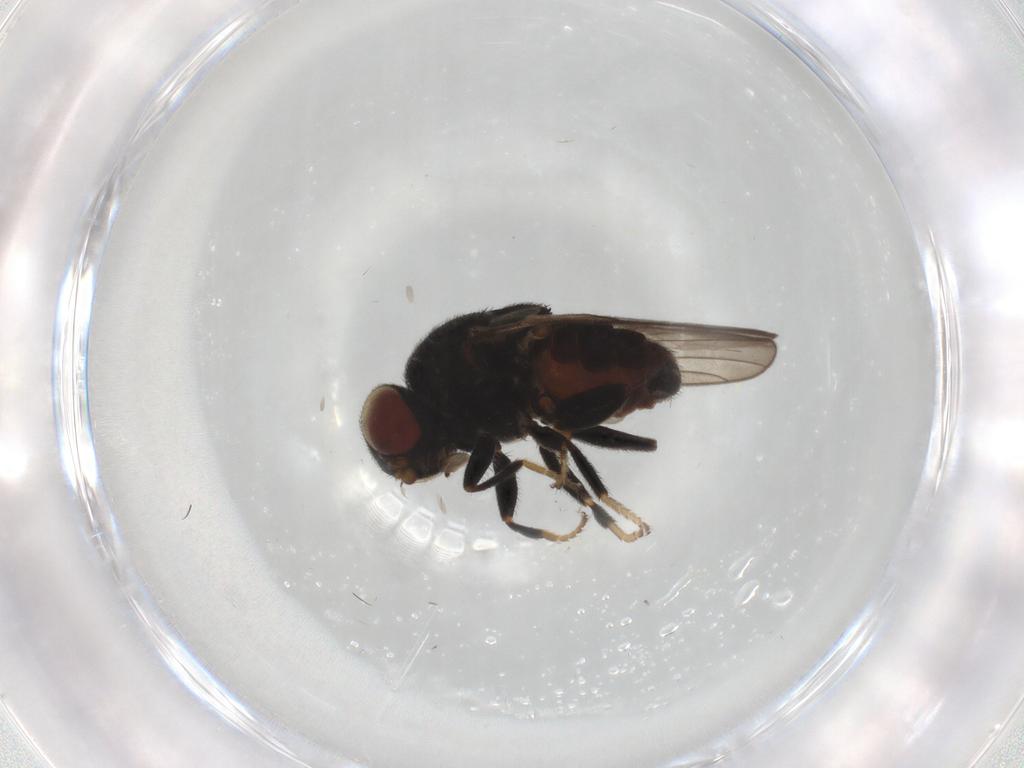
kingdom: Animalia
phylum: Arthropoda
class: Insecta
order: Diptera
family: Chloropidae
